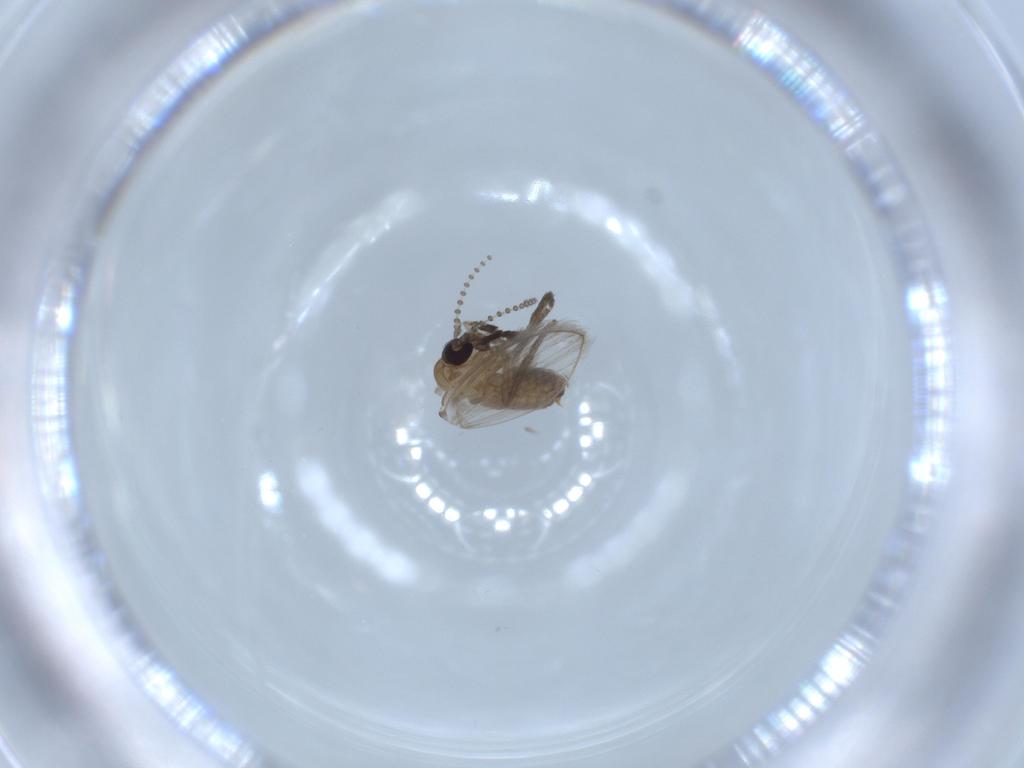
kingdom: Animalia
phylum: Arthropoda
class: Insecta
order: Diptera
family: Psychodidae
